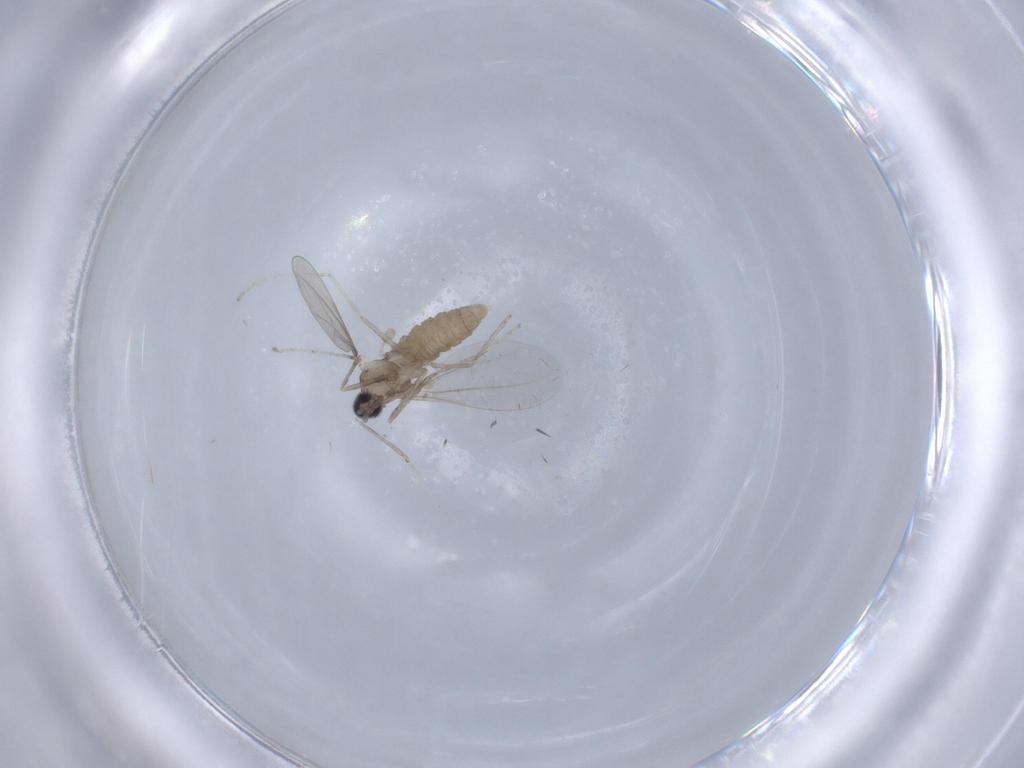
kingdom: Animalia
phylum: Arthropoda
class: Insecta
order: Diptera
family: Cecidomyiidae
